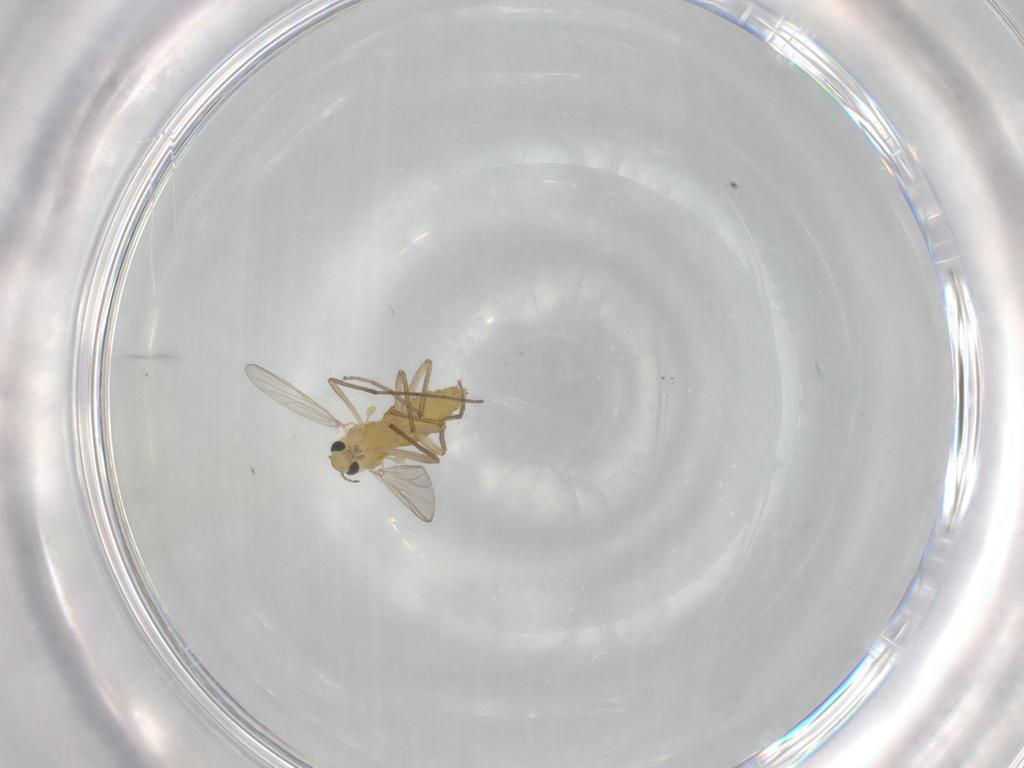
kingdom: Animalia
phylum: Arthropoda
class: Insecta
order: Diptera
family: Chironomidae
